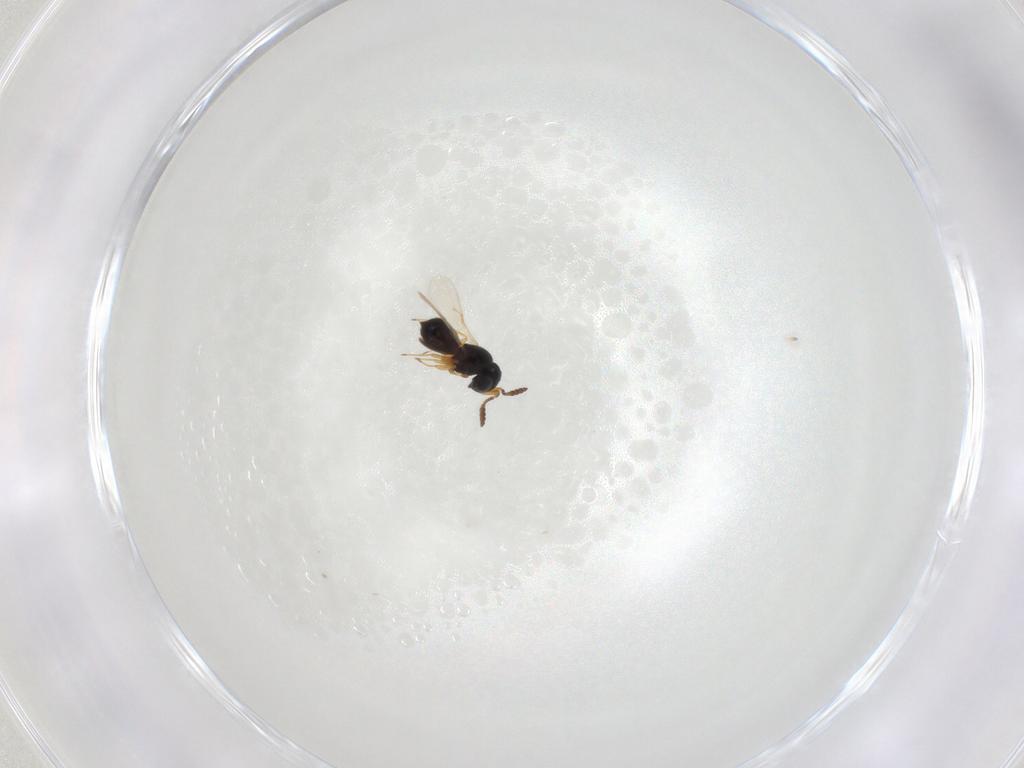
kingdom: Animalia
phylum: Arthropoda
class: Insecta
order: Hymenoptera
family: Scelionidae
